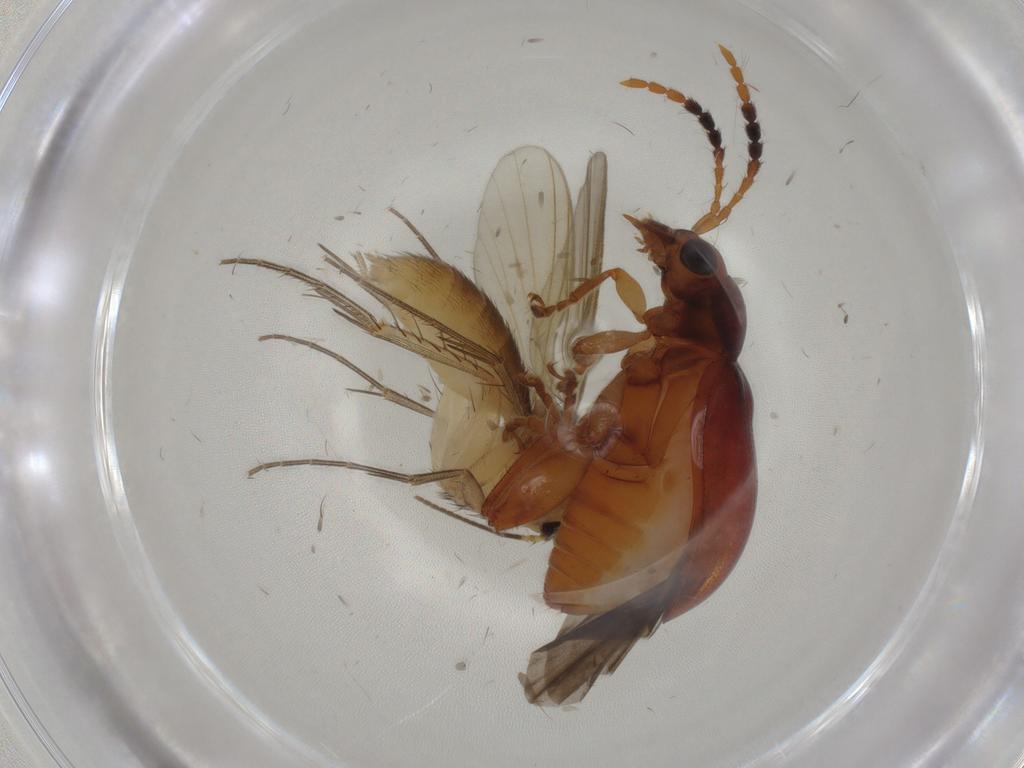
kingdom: Animalia
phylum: Arthropoda
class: Insecta
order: Diptera
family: Mycetophilidae
